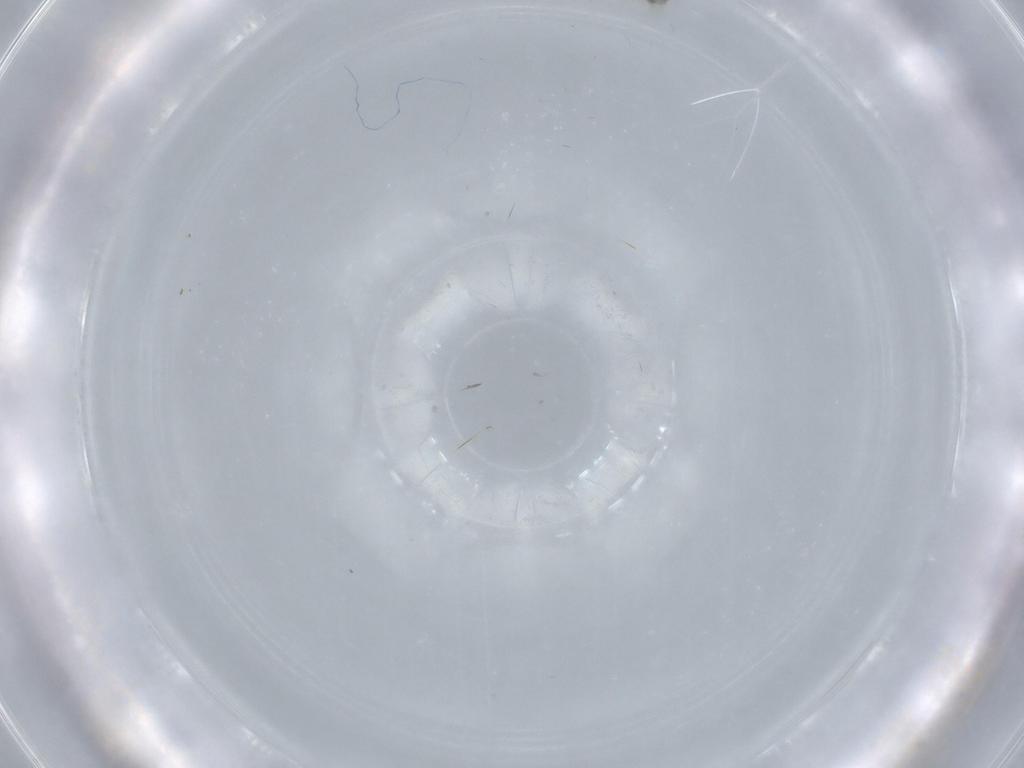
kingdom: Animalia
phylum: Arthropoda
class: Insecta
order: Diptera
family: Cecidomyiidae
